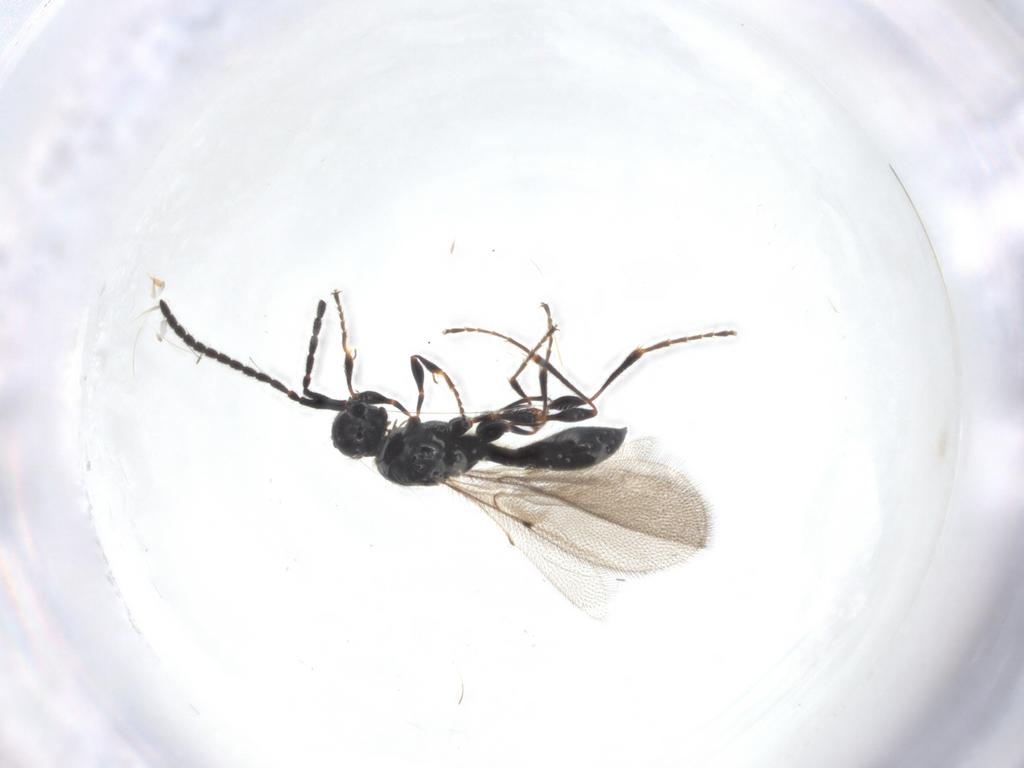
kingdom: Animalia
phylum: Arthropoda
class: Insecta
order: Hymenoptera
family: Diapriidae
